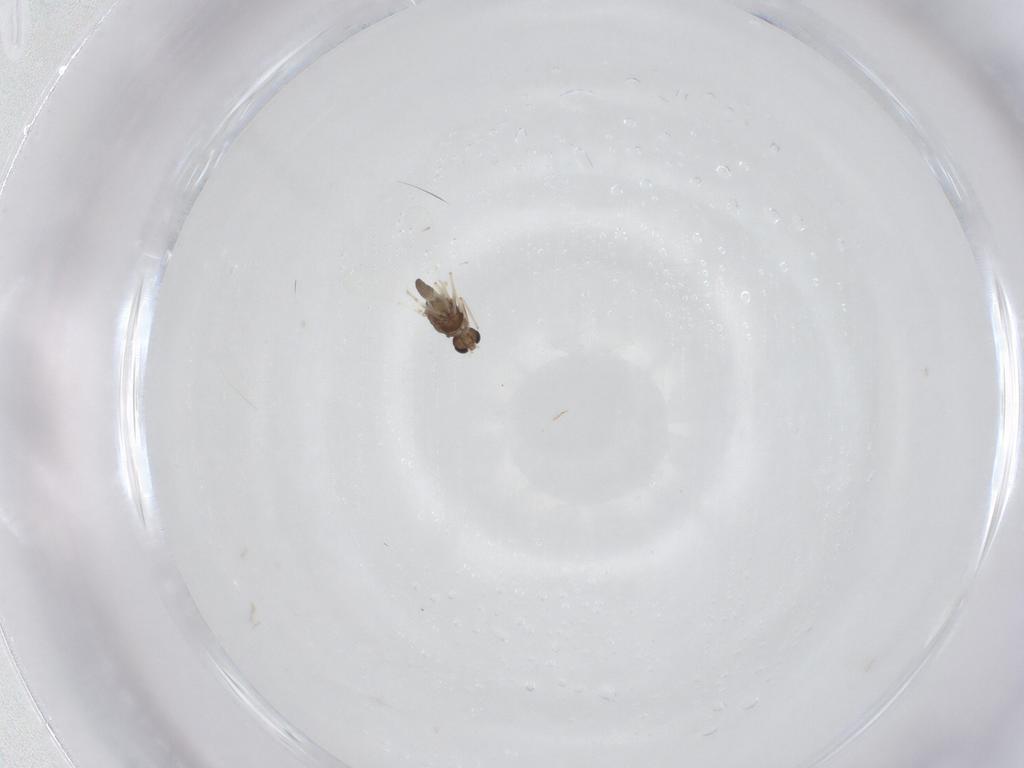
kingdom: Animalia
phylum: Arthropoda
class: Insecta
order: Diptera
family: Chironomidae
